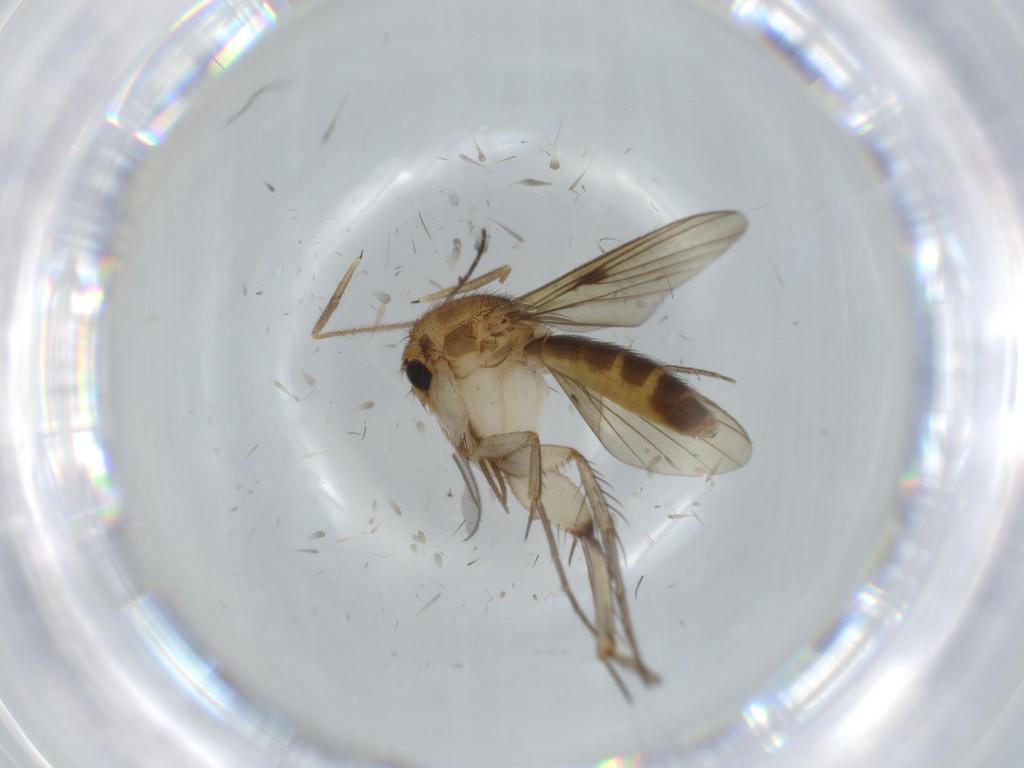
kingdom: Animalia
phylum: Arthropoda
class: Insecta
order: Diptera
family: Mycetophilidae
